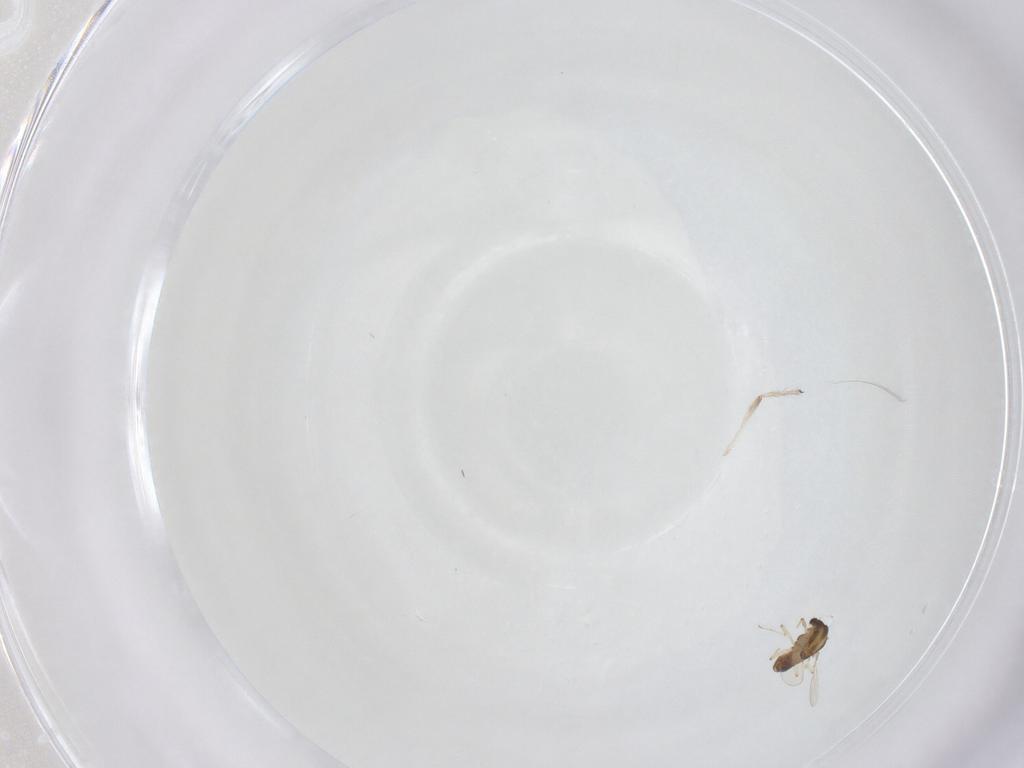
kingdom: Animalia
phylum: Arthropoda
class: Insecta
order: Diptera
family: Chironomidae
